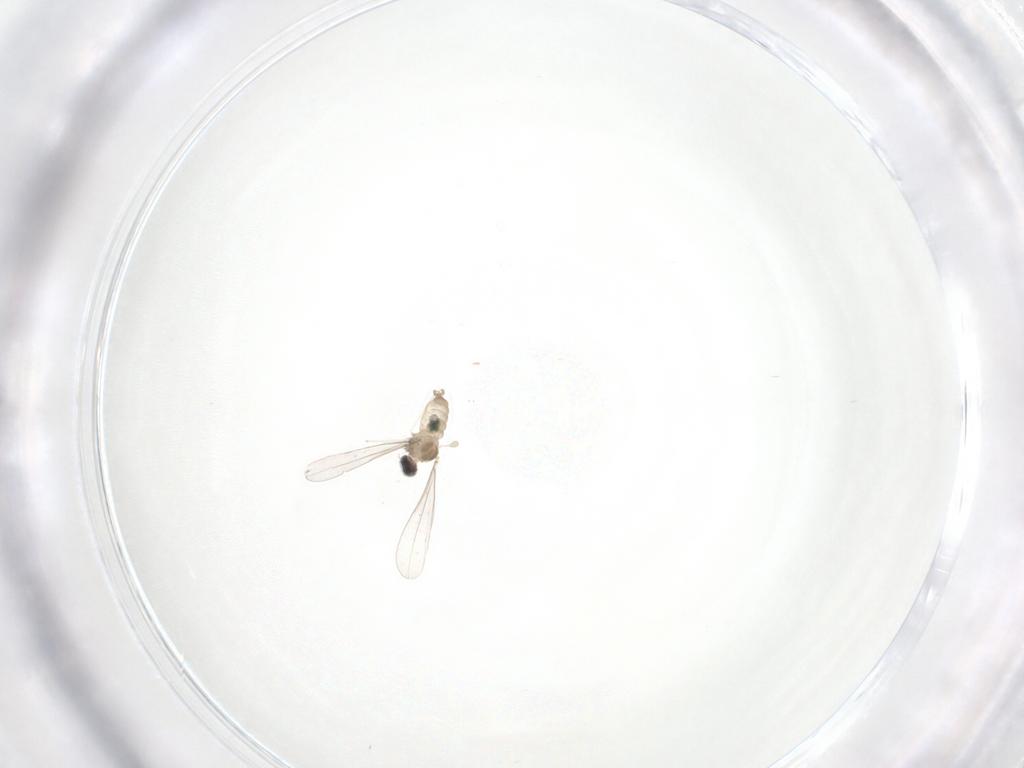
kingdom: Animalia
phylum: Arthropoda
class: Insecta
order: Diptera
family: Cecidomyiidae
